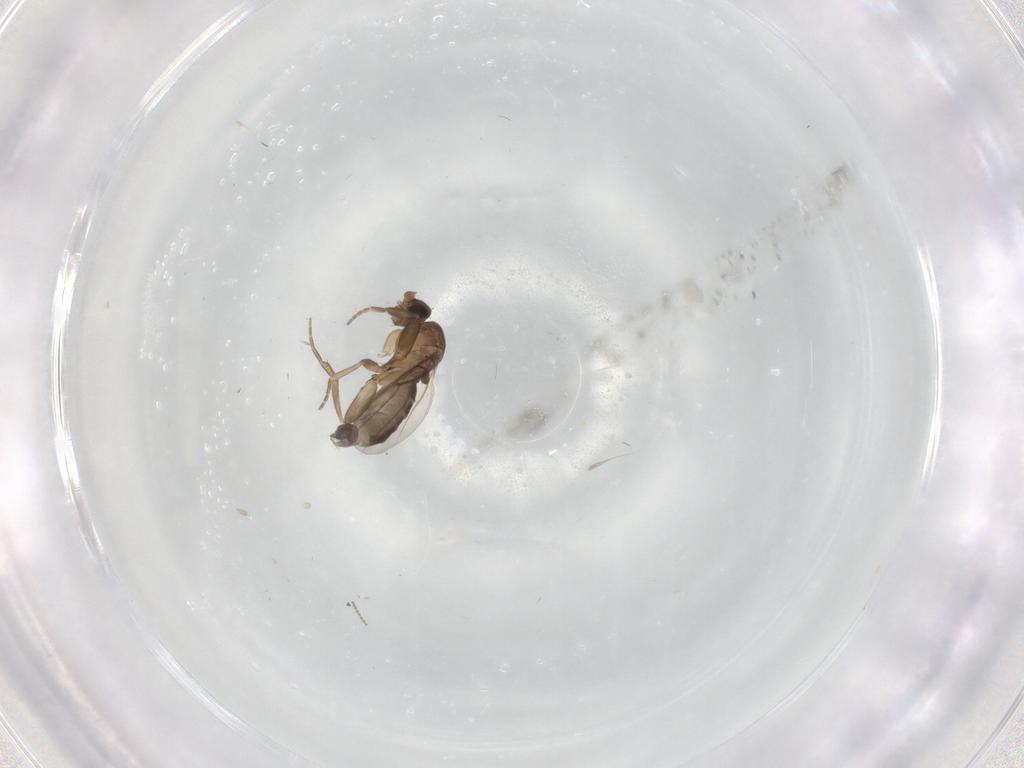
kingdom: Animalia
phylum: Arthropoda
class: Insecta
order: Diptera
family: Phoridae
